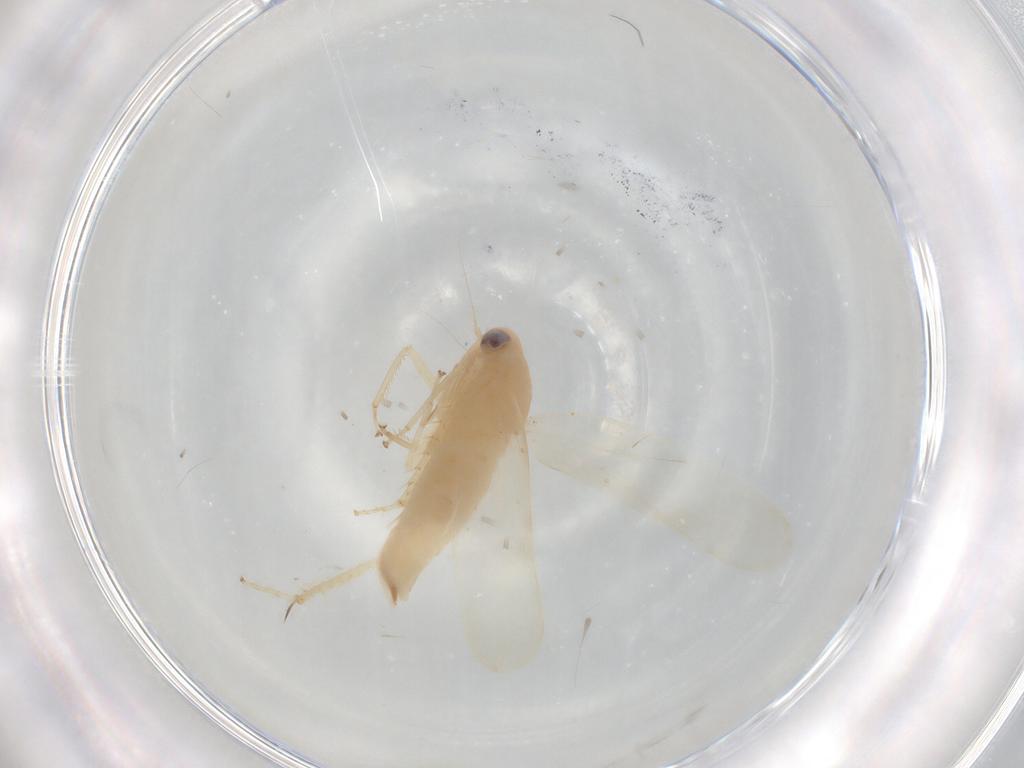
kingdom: Animalia
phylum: Arthropoda
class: Insecta
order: Hemiptera
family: Cicadellidae
